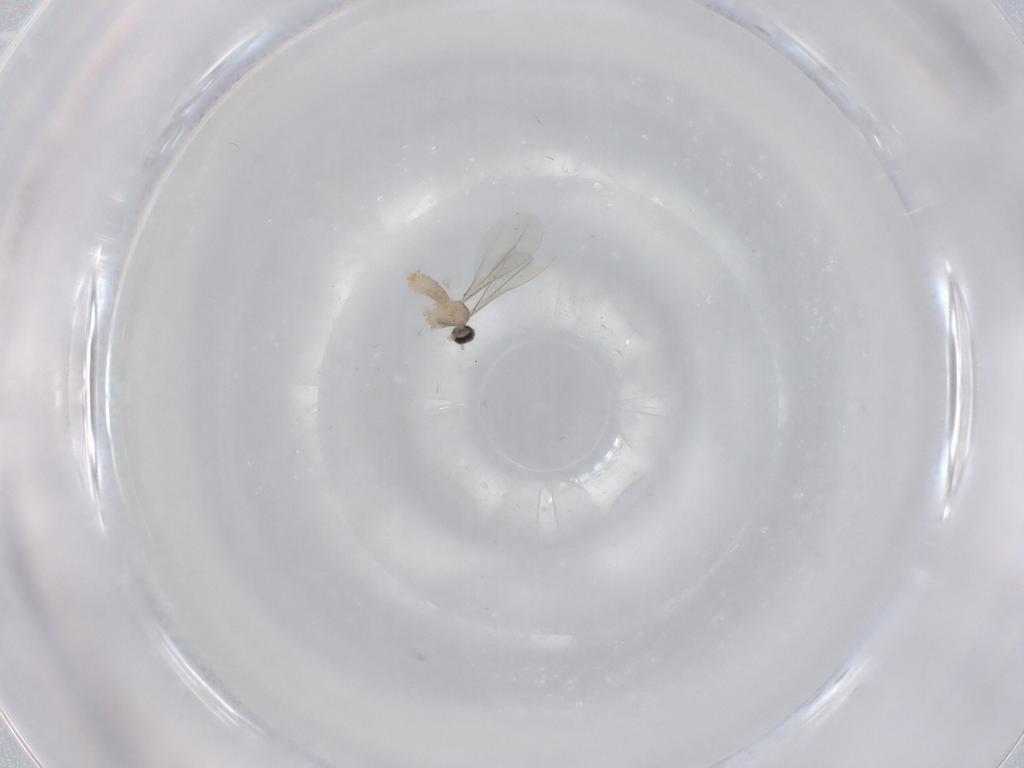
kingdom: Animalia
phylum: Arthropoda
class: Insecta
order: Diptera
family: Cecidomyiidae
